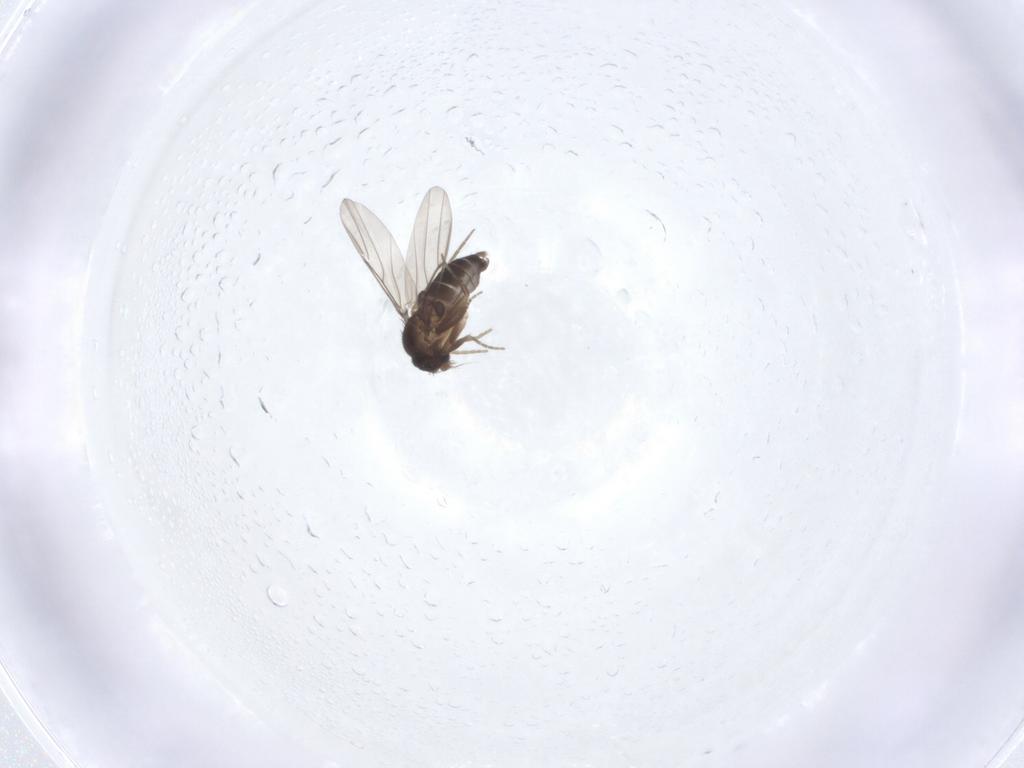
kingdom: Animalia
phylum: Arthropoda
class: Insecta
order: Diptera
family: Phoridae
